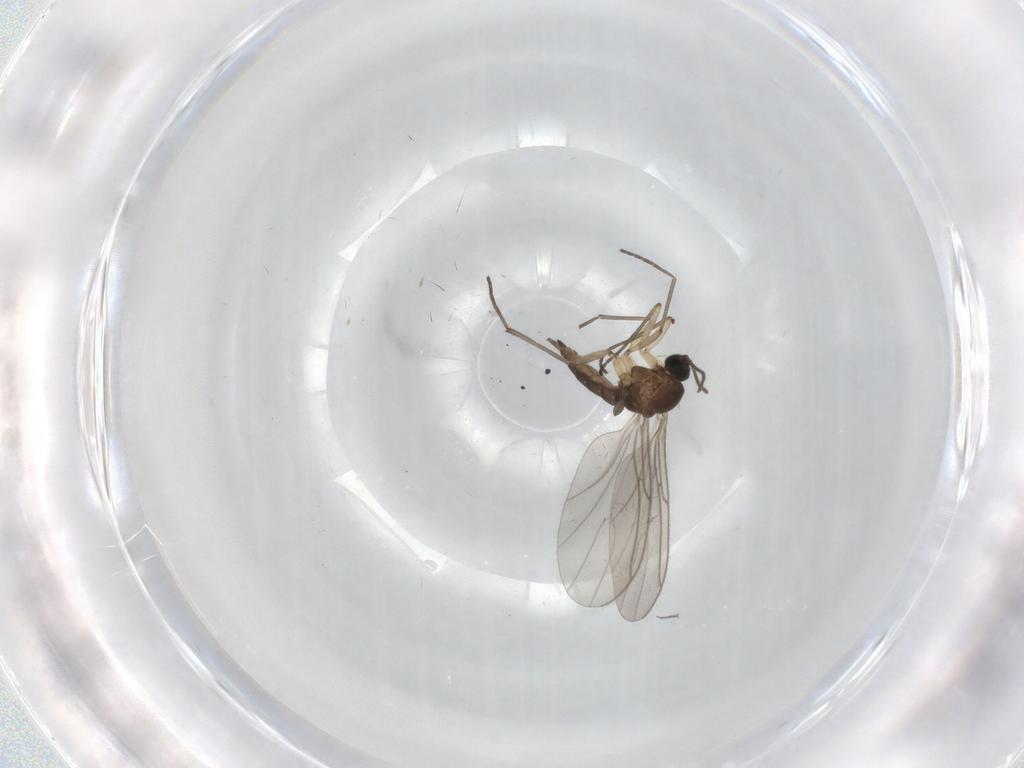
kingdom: Animalia
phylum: Arthropoda
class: Insecta
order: Diptera
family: Sciaridae
